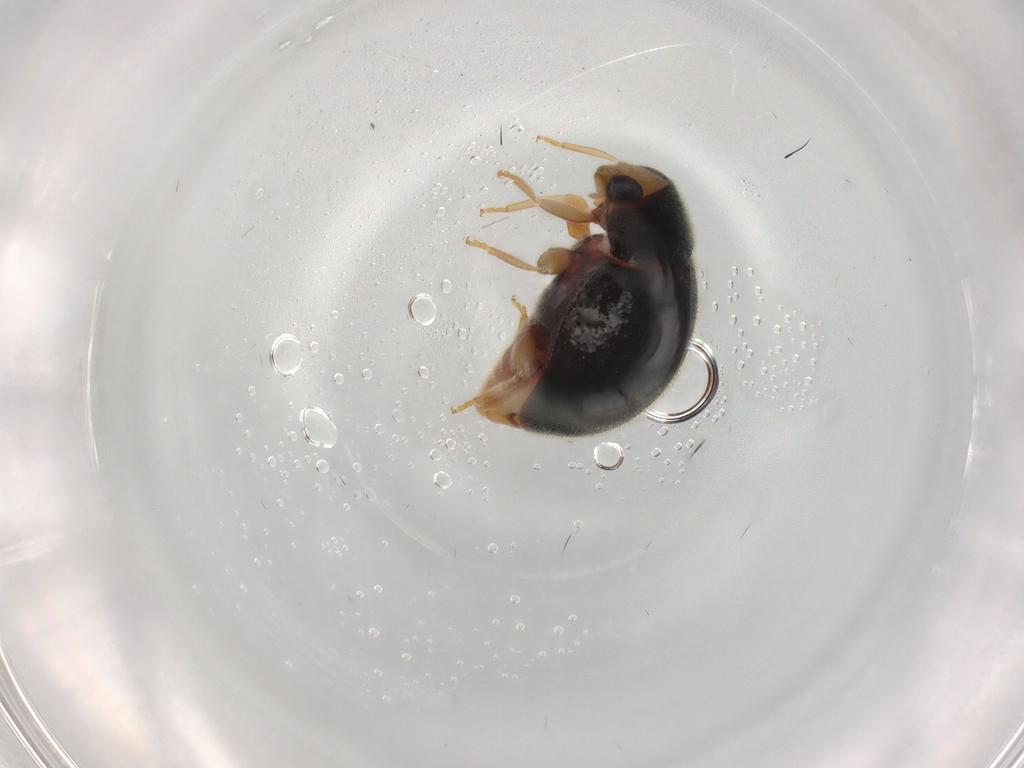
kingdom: Animalia
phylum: Arthropoda
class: Insecta
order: Coleoptera
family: Coccinellidae
